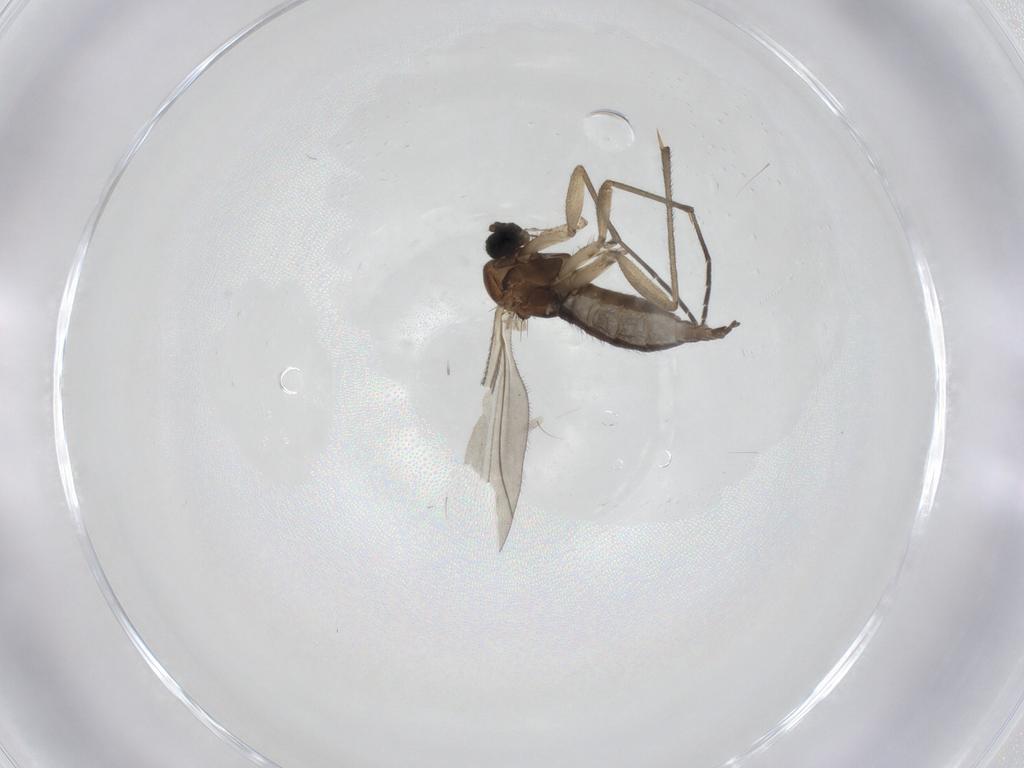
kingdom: Animalia
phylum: Arthropoda
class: Insecta
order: Diptera
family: Sciaridae
